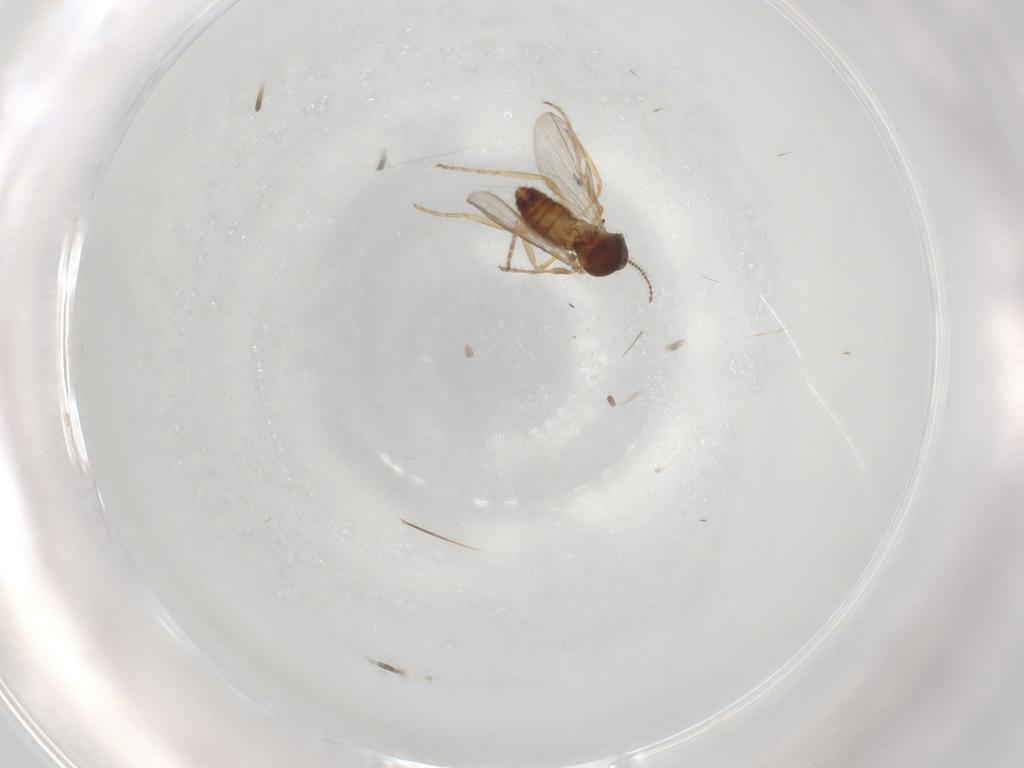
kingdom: Animalia
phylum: Arthropoda
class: Insecta
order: Diptera
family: Ceratopogonidae
